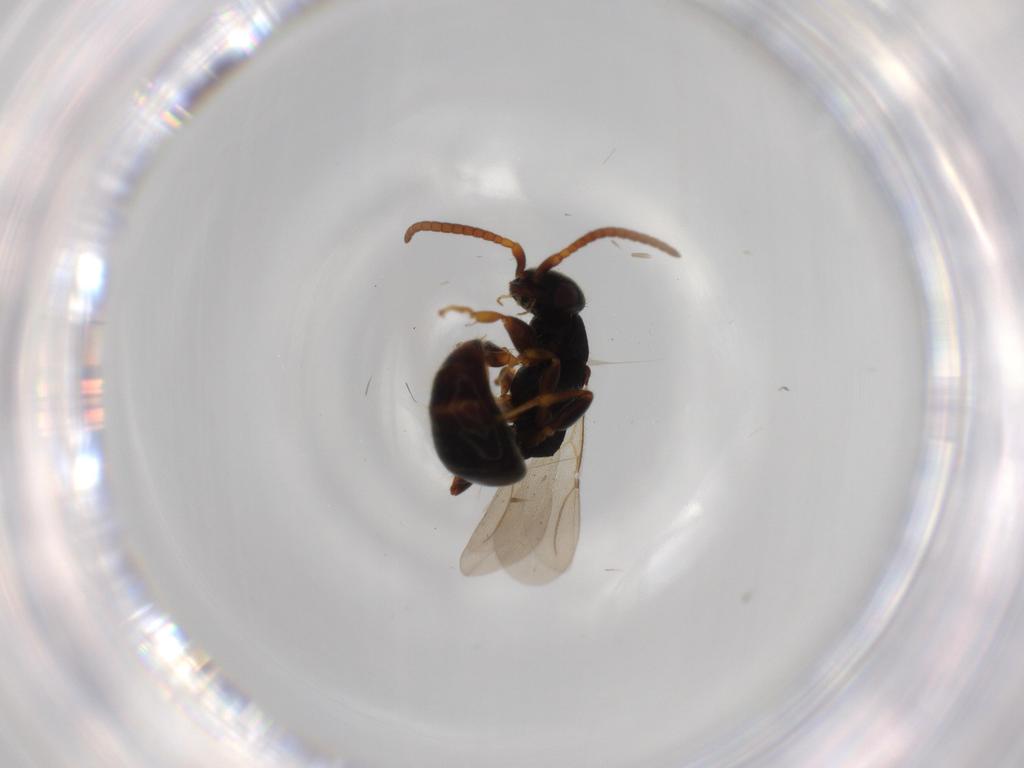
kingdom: Animalia
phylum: Arthropoda
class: Insecta
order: Hymenoptera
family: Bethylidae
